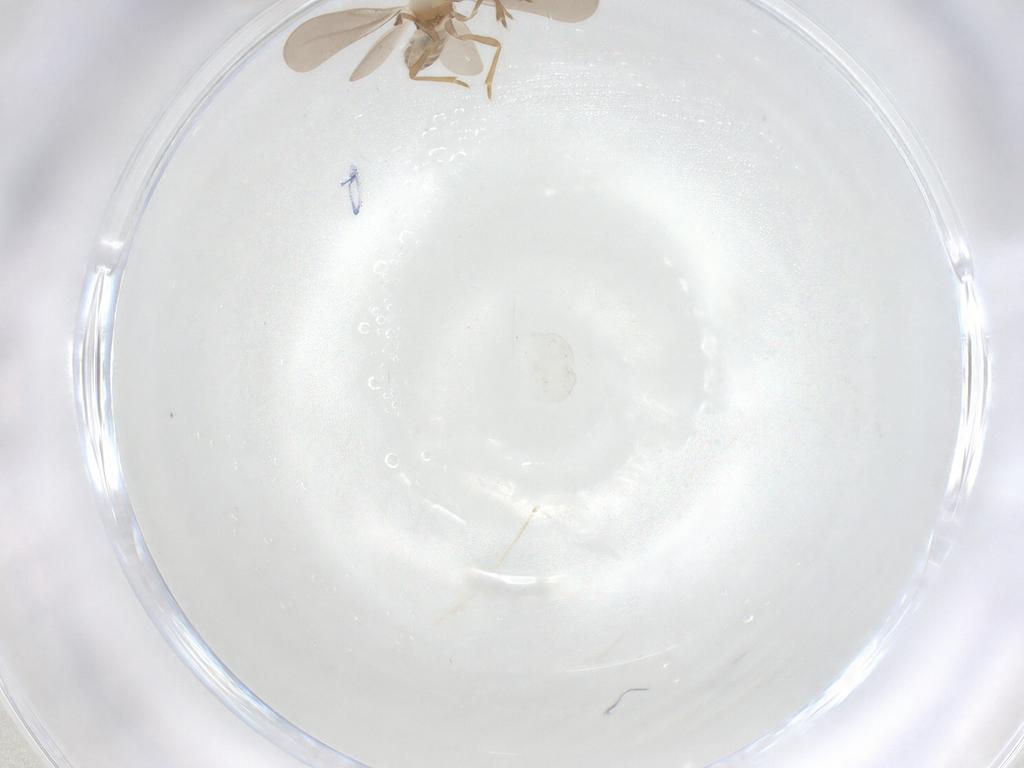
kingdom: Animalia
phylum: Arthropoda
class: Insecta
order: Hemiptera
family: Enicocephalidae
